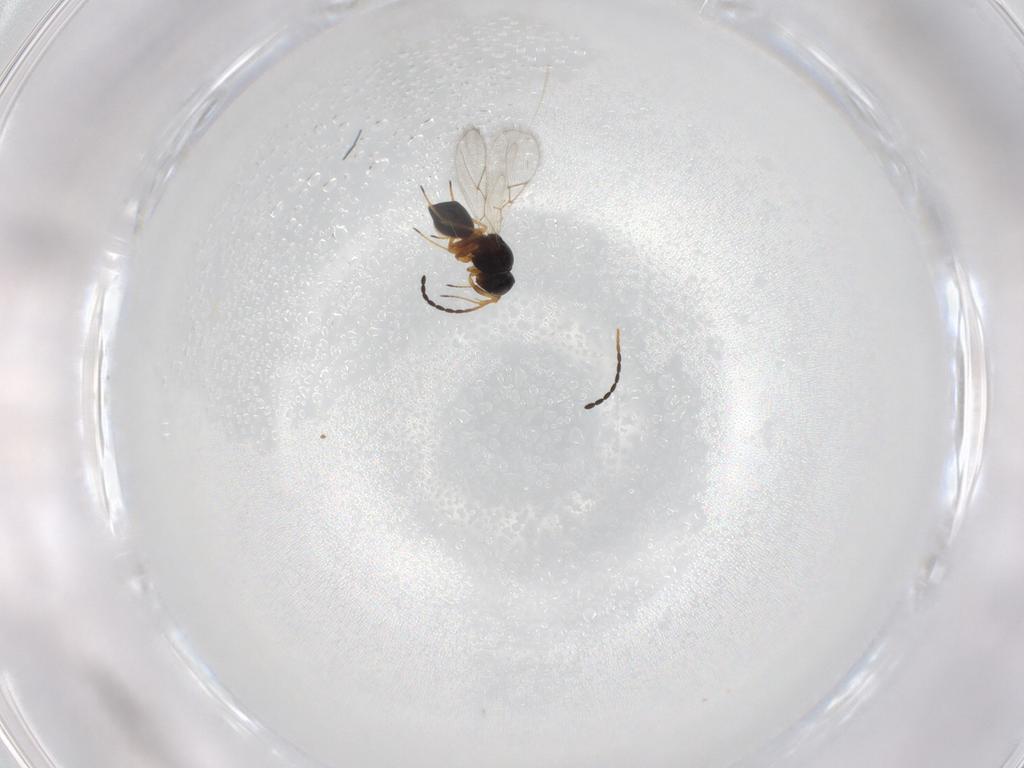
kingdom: Animalia
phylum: Arthropoda
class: Insecta
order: Hymenoptera
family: Figitidae
